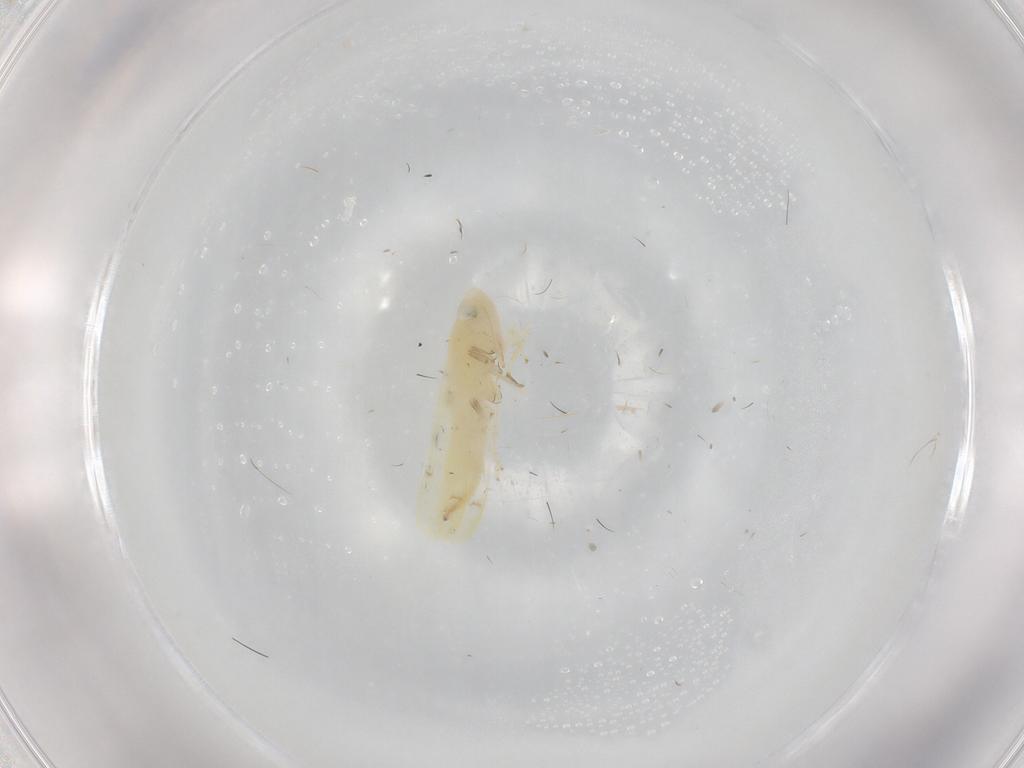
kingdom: Animalia
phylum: Arthropoda
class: Insecta
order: Hemiptera
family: Cicadellidae
